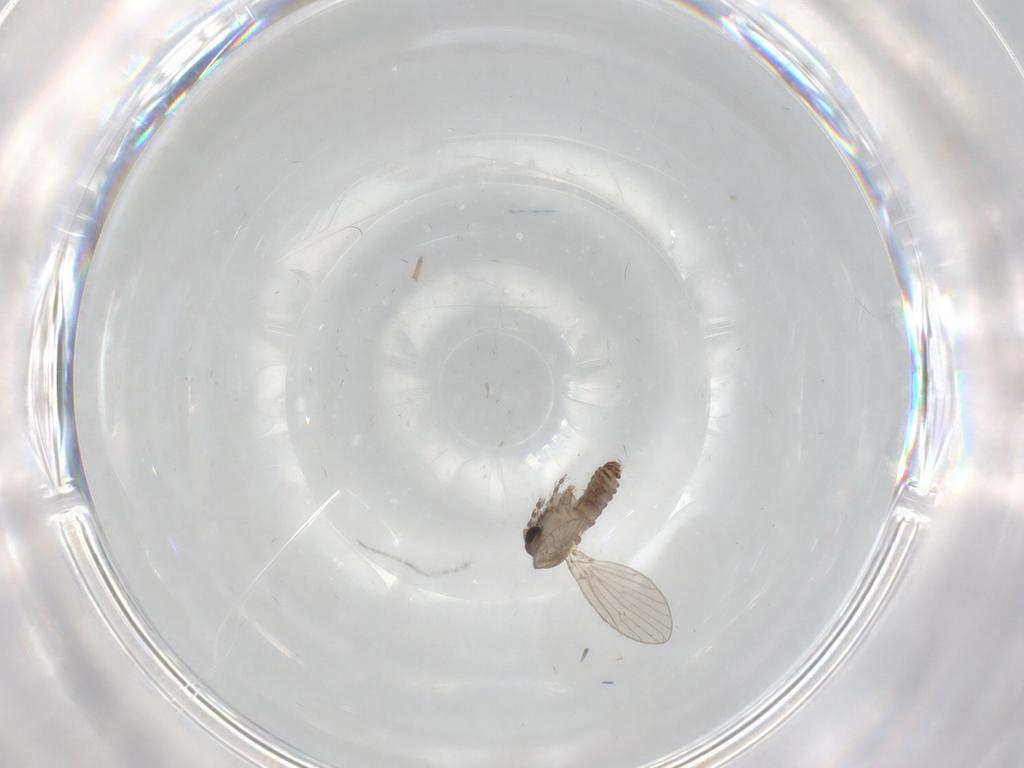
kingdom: Animalia
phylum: Arthropoda
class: Insecta
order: Diptera
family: Psychodidae
